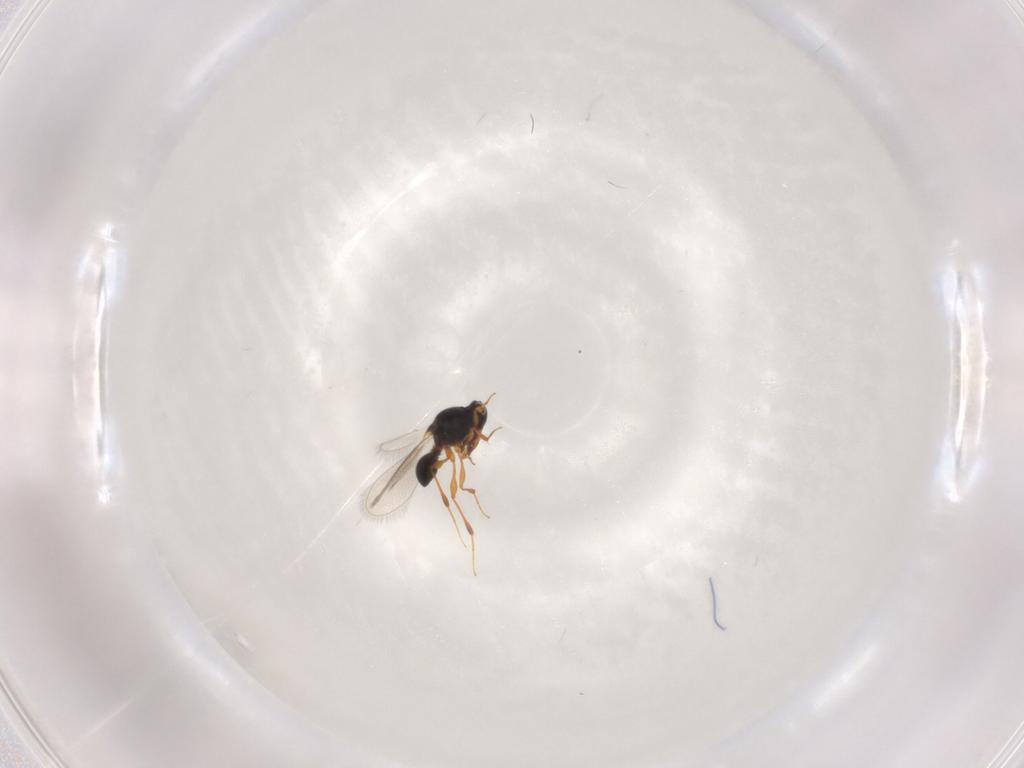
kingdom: Animalia
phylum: Arthropoda
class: Insecta
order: Hymenoptera
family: Platygastridae
